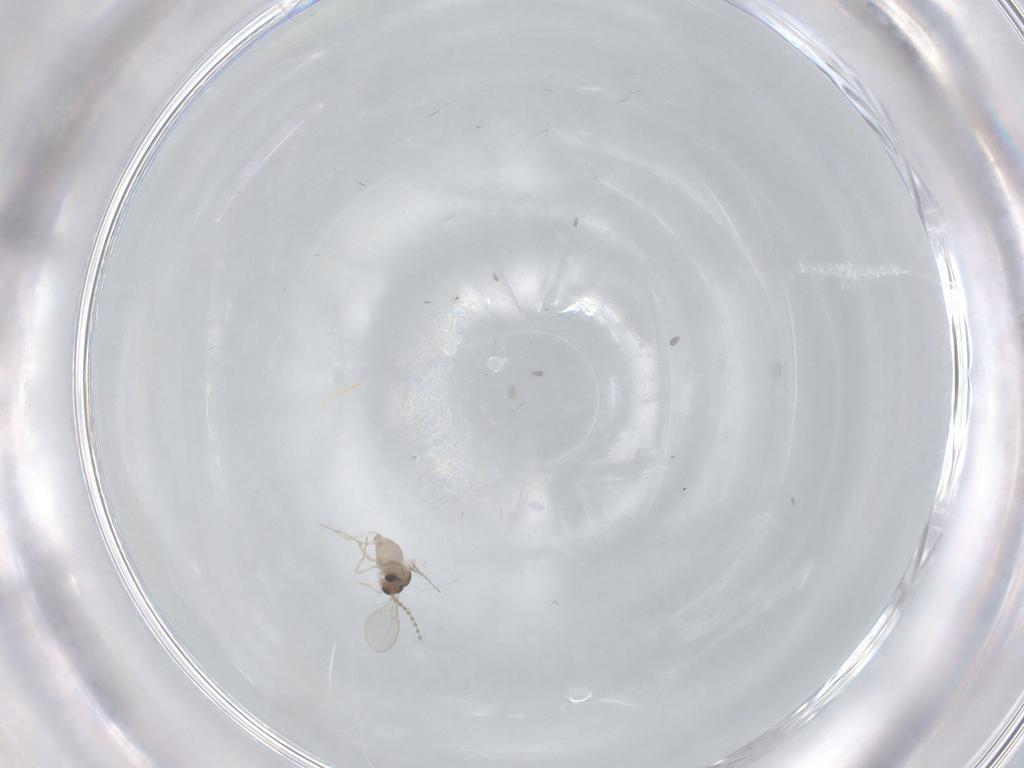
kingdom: Animalia
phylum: Arthropoda
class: Insecta
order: Diptera
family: Cecidomyiidae
